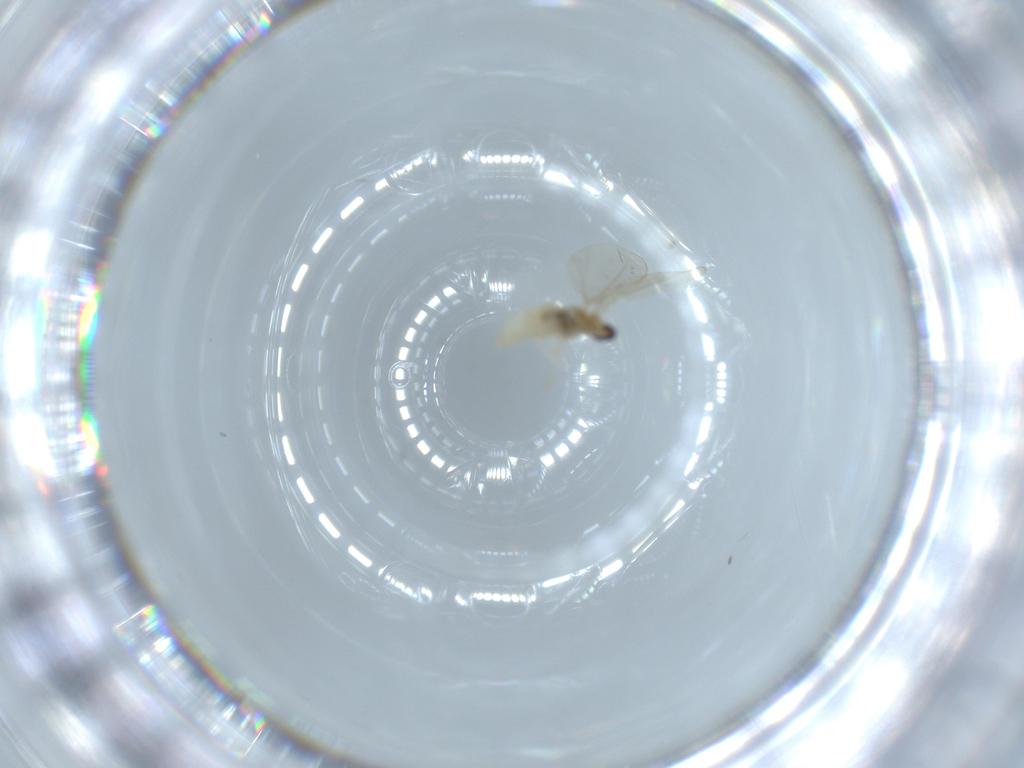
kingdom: Animalia
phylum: Arthropoda
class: Insecta
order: Diptera
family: Cecidomyiidae
